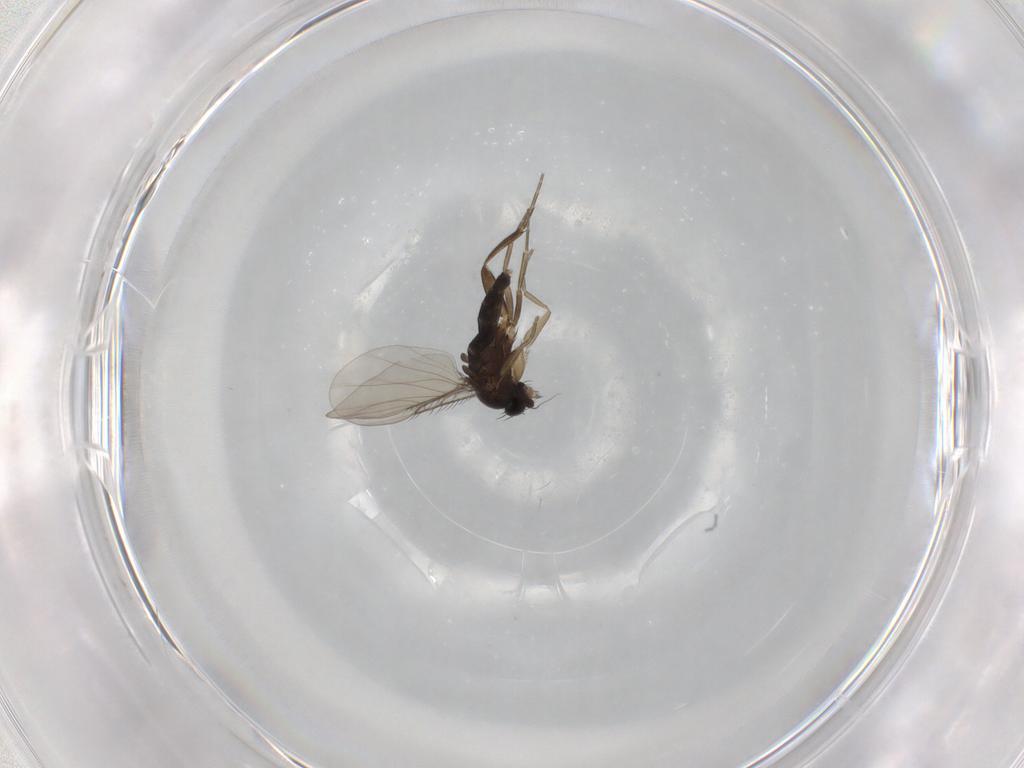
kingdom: Animalia
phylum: Arthropoda
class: Insecta
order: Diptera
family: Phoridae
